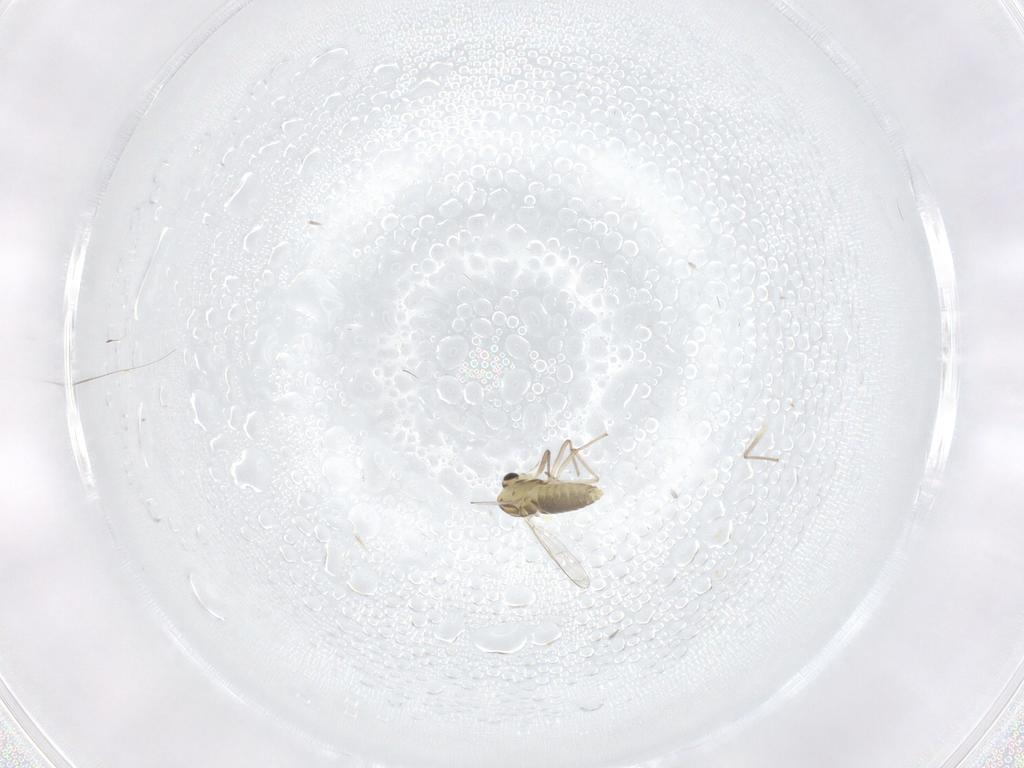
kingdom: Animalia
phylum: Arthropoda
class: Insecta
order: Diptera
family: Chironomidae
